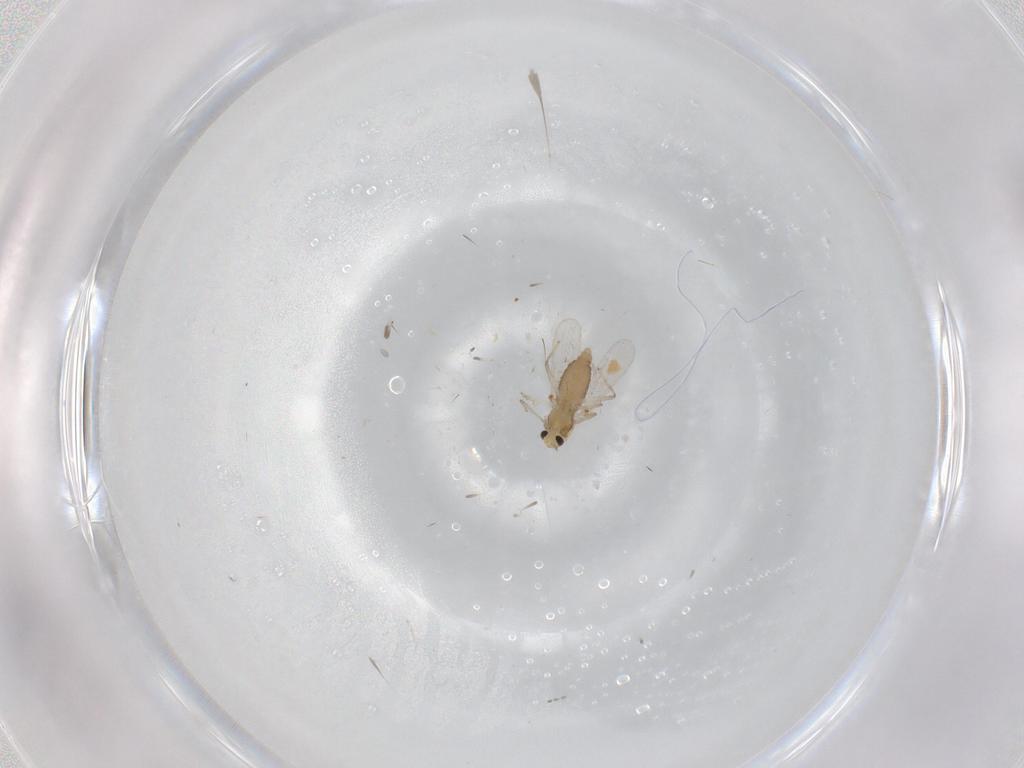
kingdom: Animalia
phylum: Arthropoda
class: Insecta
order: Diptera
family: Chironomidae
